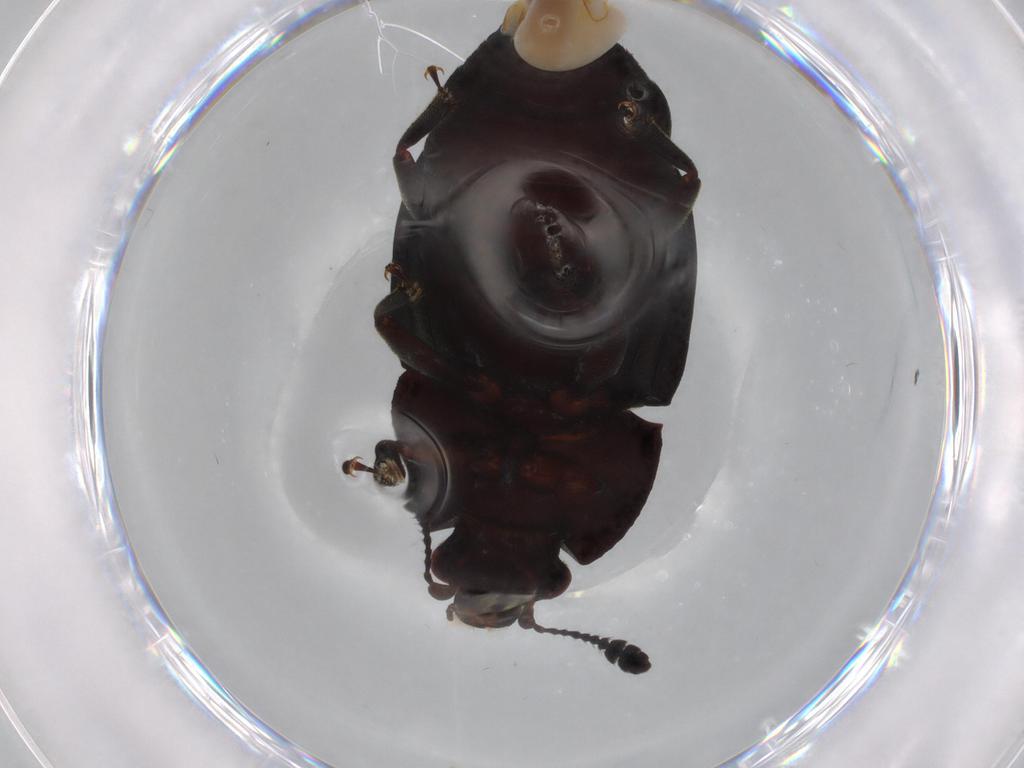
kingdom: Animalia
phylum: Arthropoda
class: Insecta
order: Coleoptera
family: Nitidulidae
